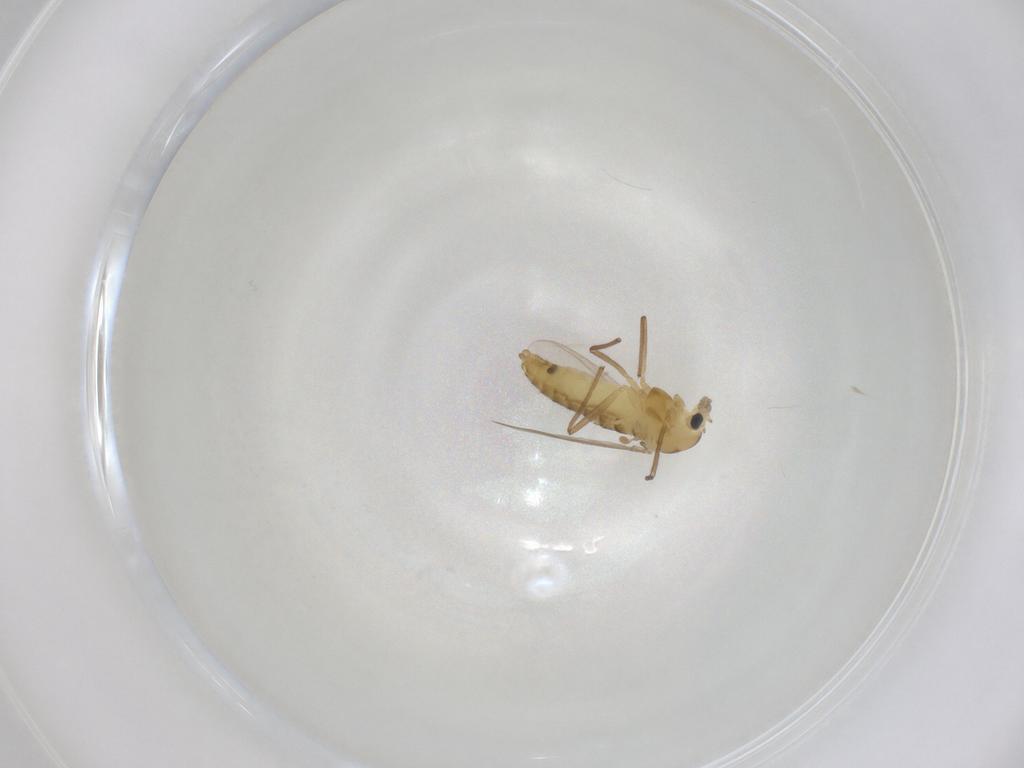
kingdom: Animalia
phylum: Arthropoda
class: Insecta
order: Diptera
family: Chironomidae
